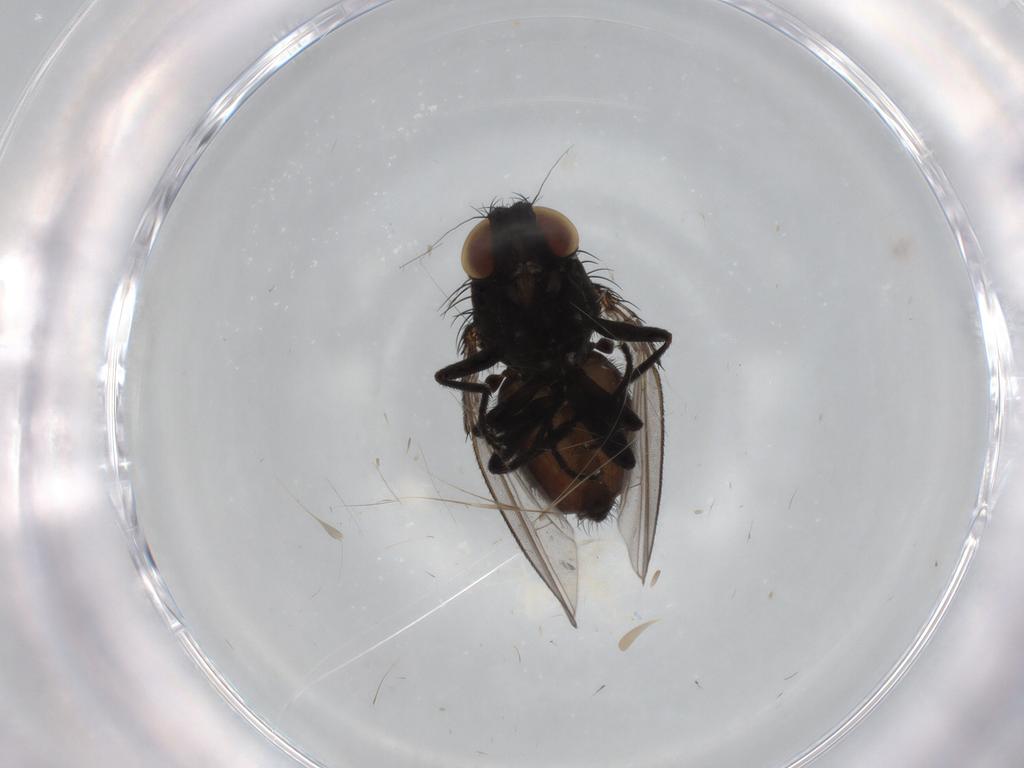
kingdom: Animalia
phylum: Arthropoda
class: Insecta
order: Diptera
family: Milichiidae
